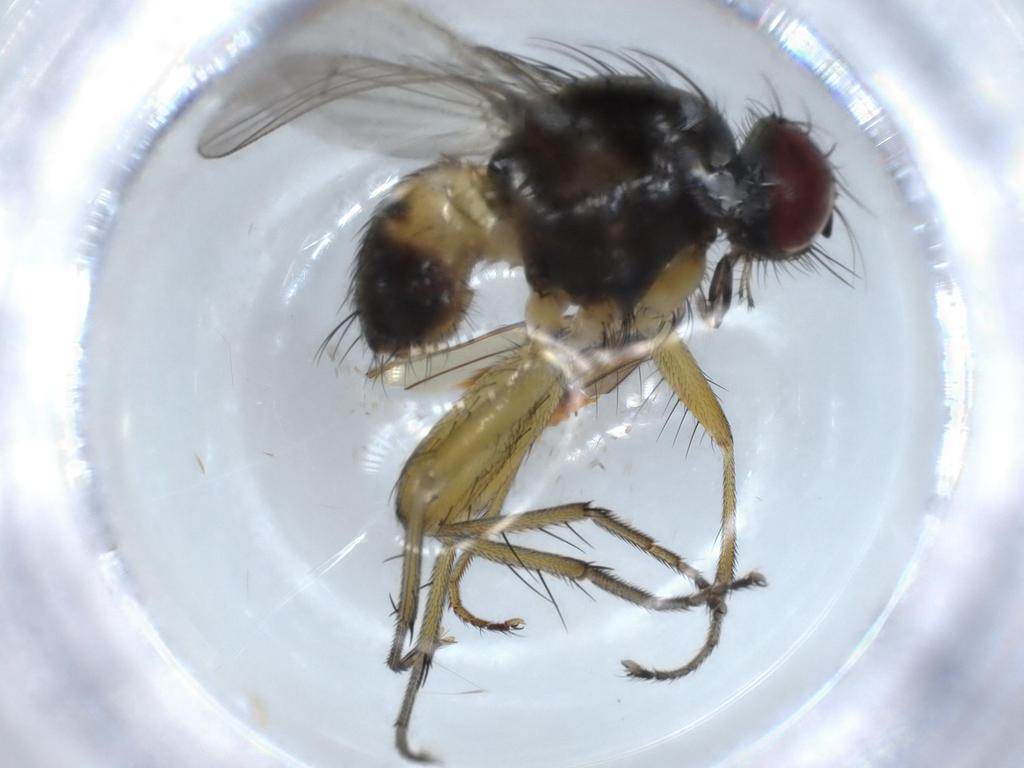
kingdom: Animalia
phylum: Arthropoda
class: Insecta
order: Diptera
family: Muscidae
